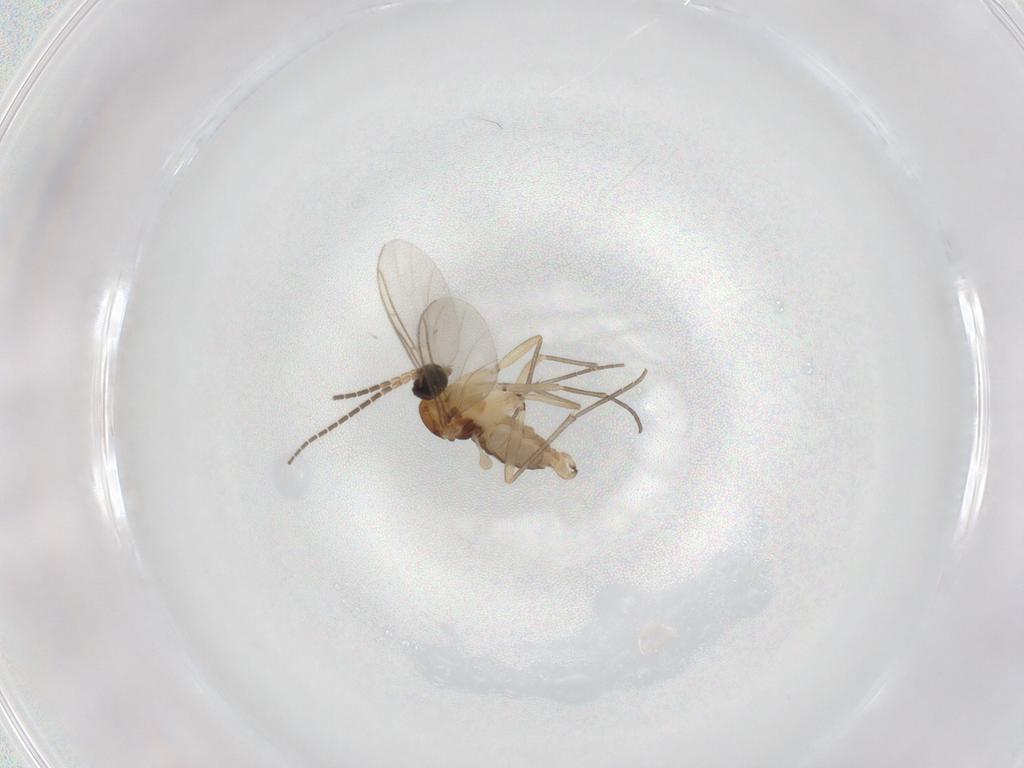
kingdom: Animalia
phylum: Arthropoda
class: Insecta
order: Diptera
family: Sciaridae
